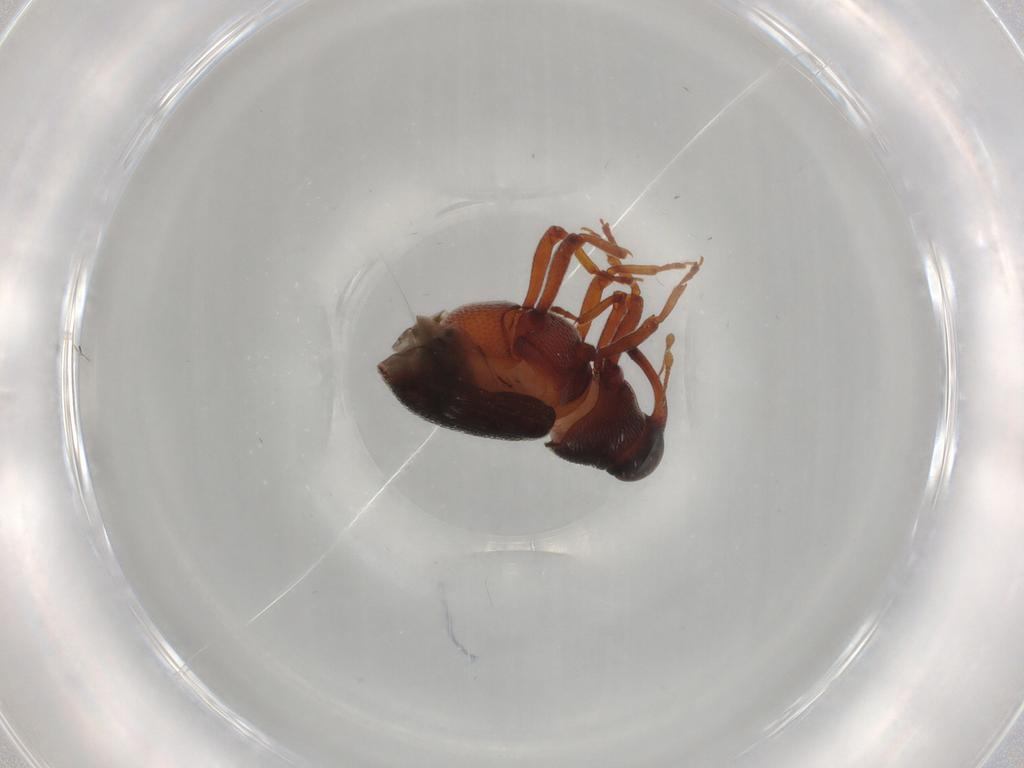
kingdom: Animalia
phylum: Arthropoda
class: Insecta
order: Coleoptera
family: Curculionidae
